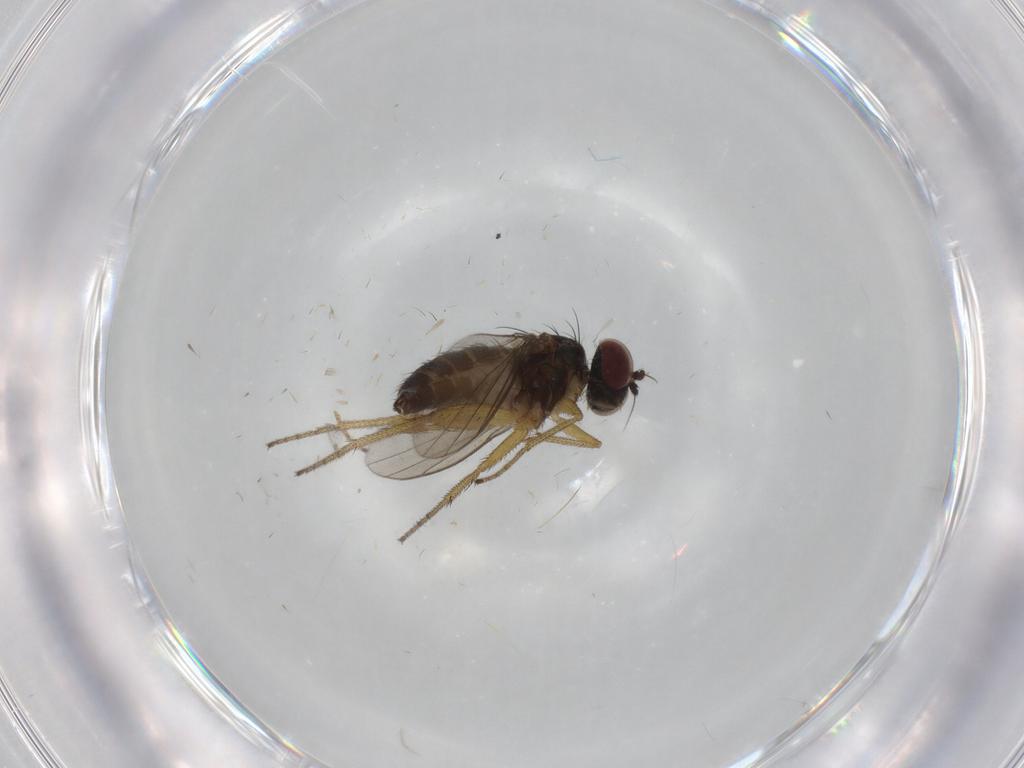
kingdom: Animalia
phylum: Arthropoda
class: Insecta
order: Diptera
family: Dolichopodidae
